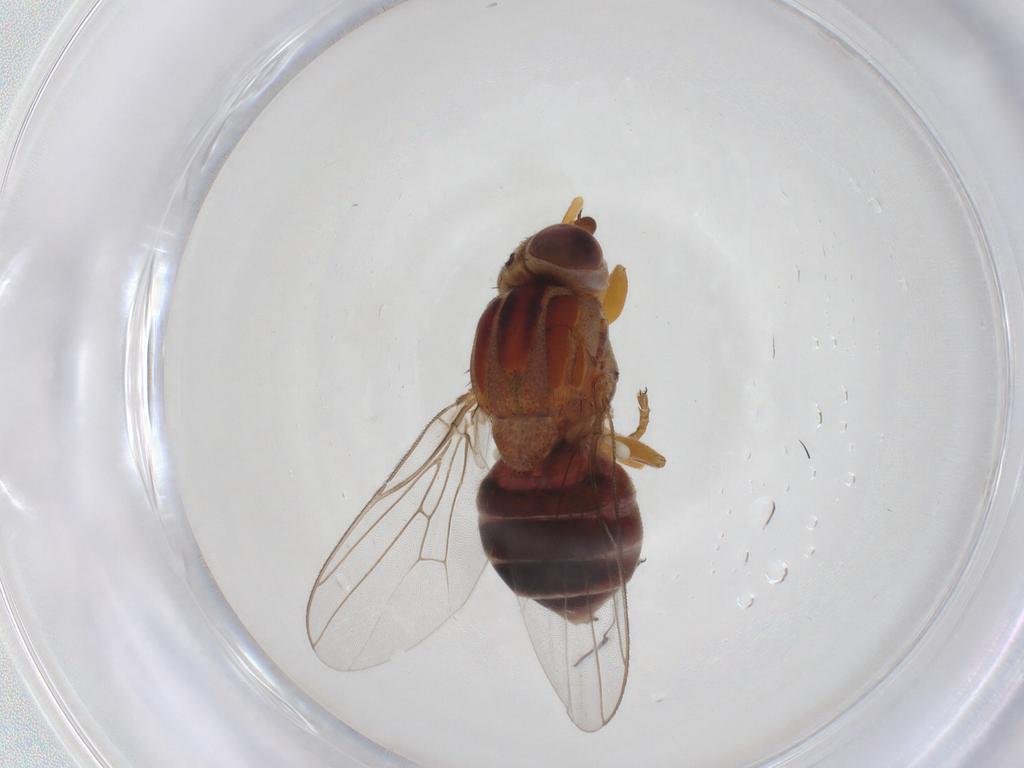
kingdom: Animalia
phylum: Arthropoda
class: Insecta
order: Diptera
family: Chloropidae
